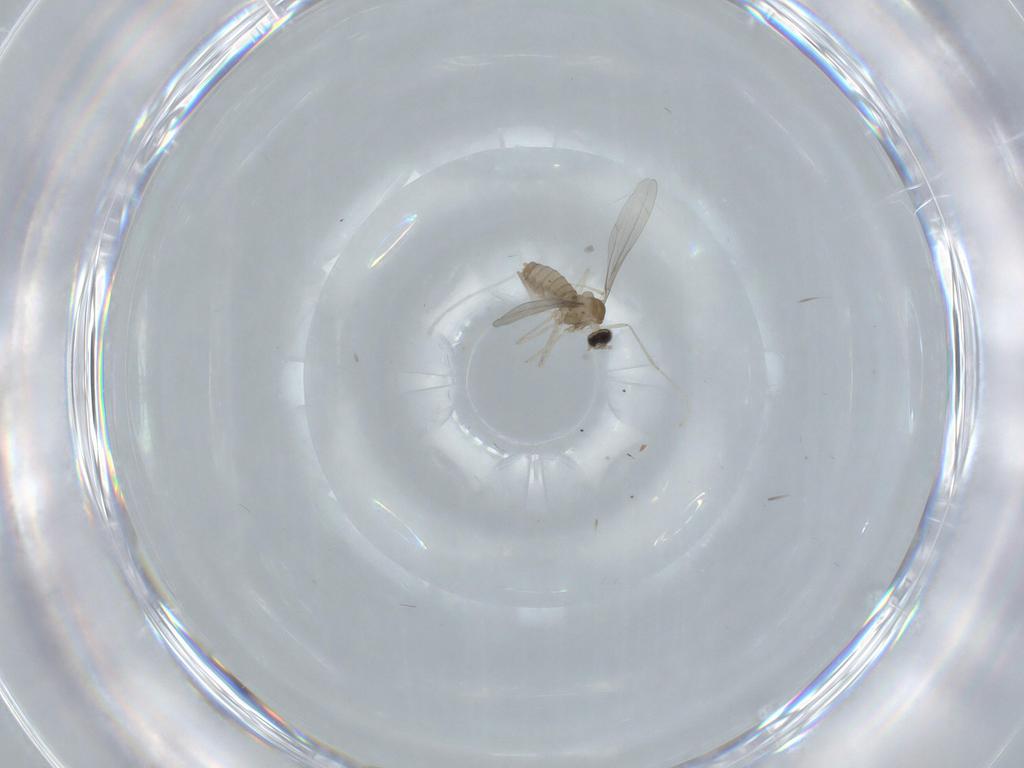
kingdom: Animalia
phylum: Arthropoda
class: Insecta
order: Diptera
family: Cecidomyiidae
